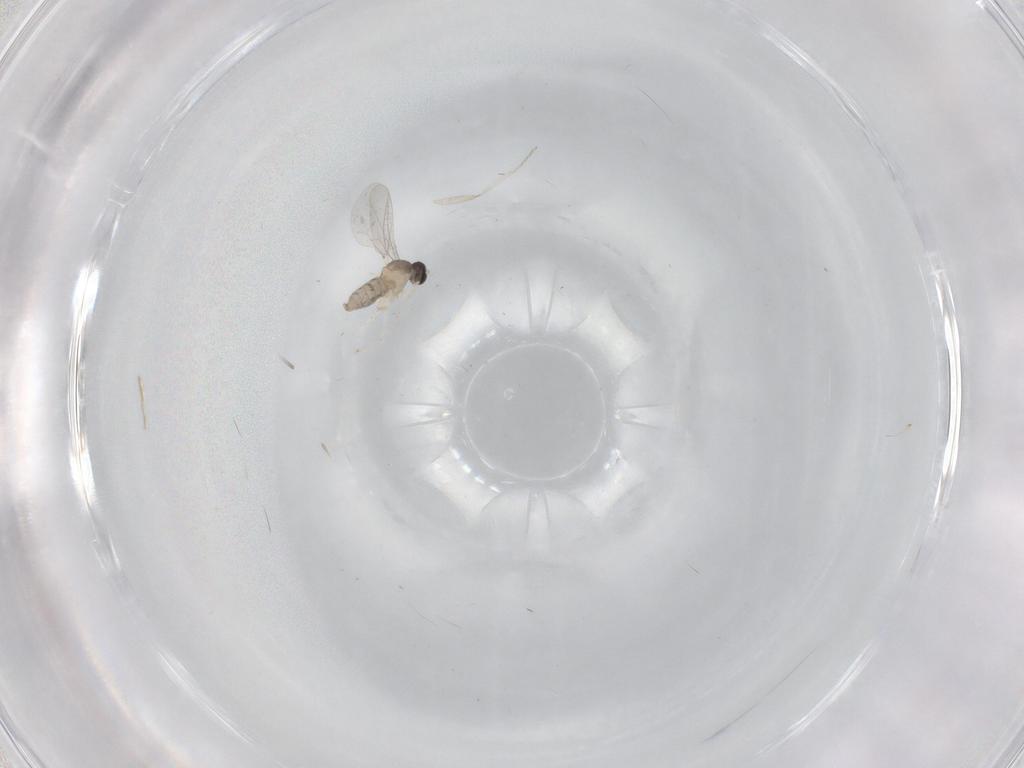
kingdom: Animalia
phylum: Arthropoda
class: Insecta
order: Diptera
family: Cecidomyiidae
